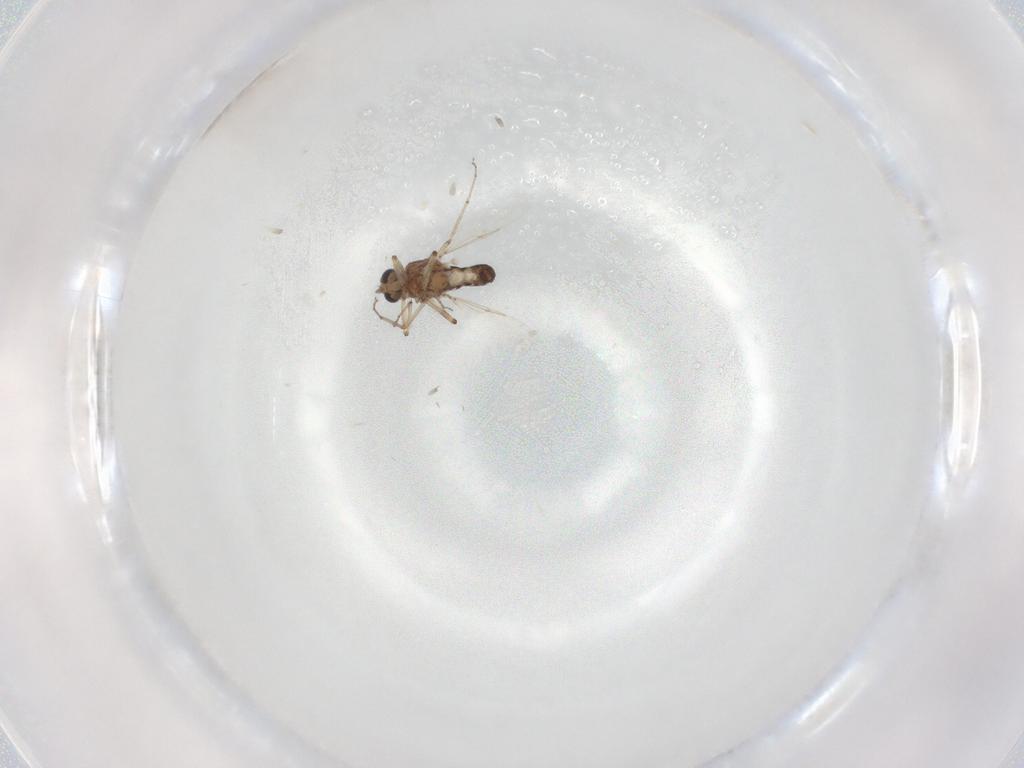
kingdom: Animalia
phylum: Arthropoda
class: Insecta
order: Diptera
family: Ceratopogonidae
